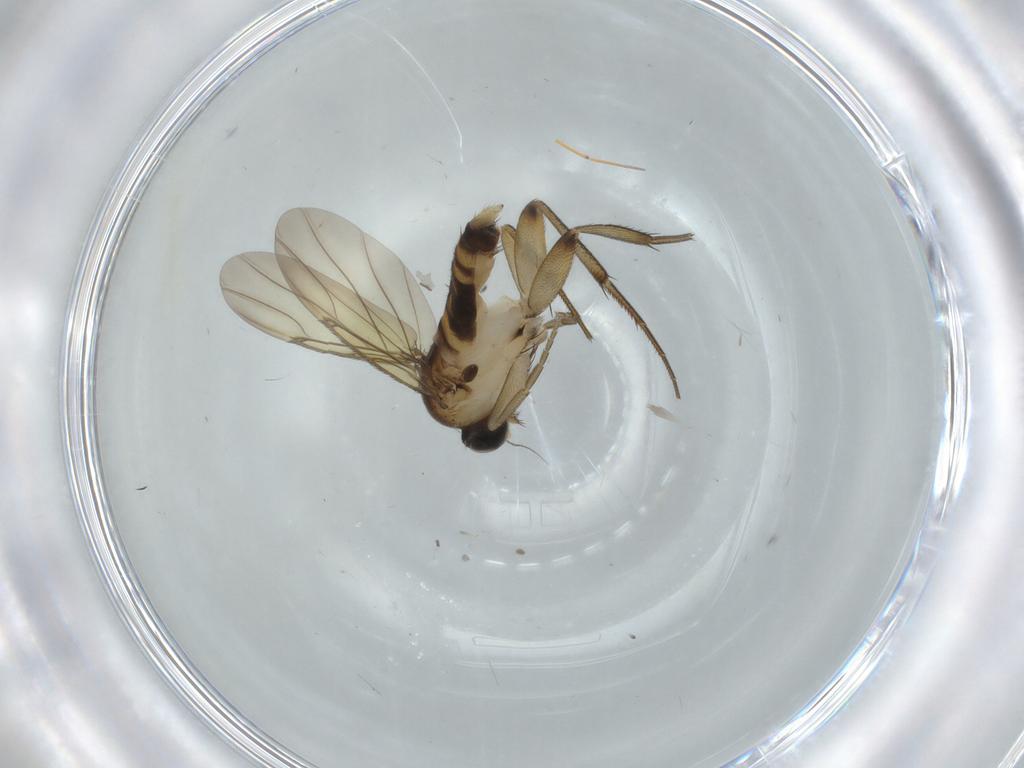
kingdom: Animalia
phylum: Arthropoda
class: Insecta
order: Diptera
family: Phoridae
